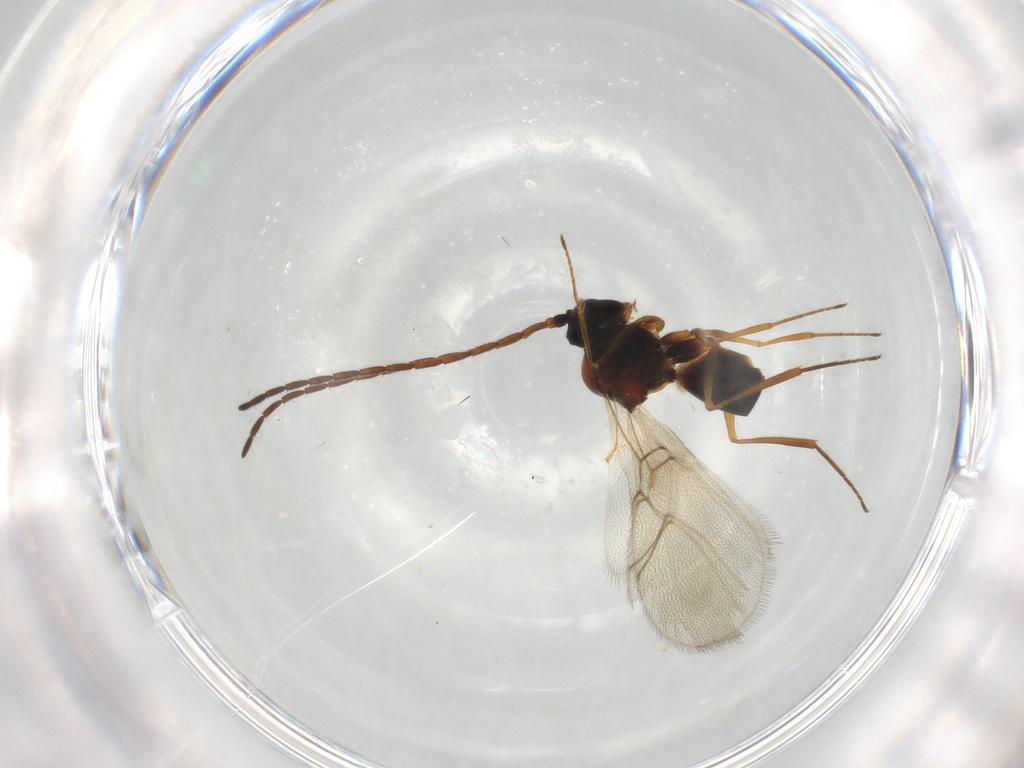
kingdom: Animalia
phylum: Arthropoda
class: Insecta
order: Hymenoptera
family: Figitidae
